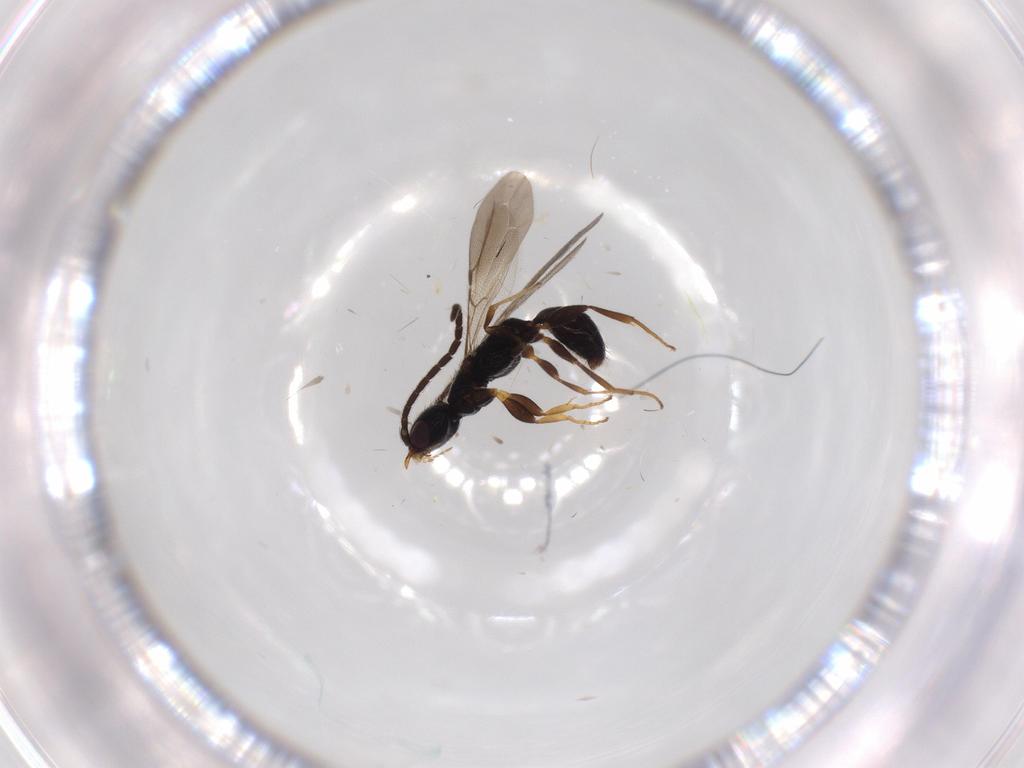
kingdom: Animalia
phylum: Arthropoda
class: Insecta
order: Hymenoptera
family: Bethylidae
